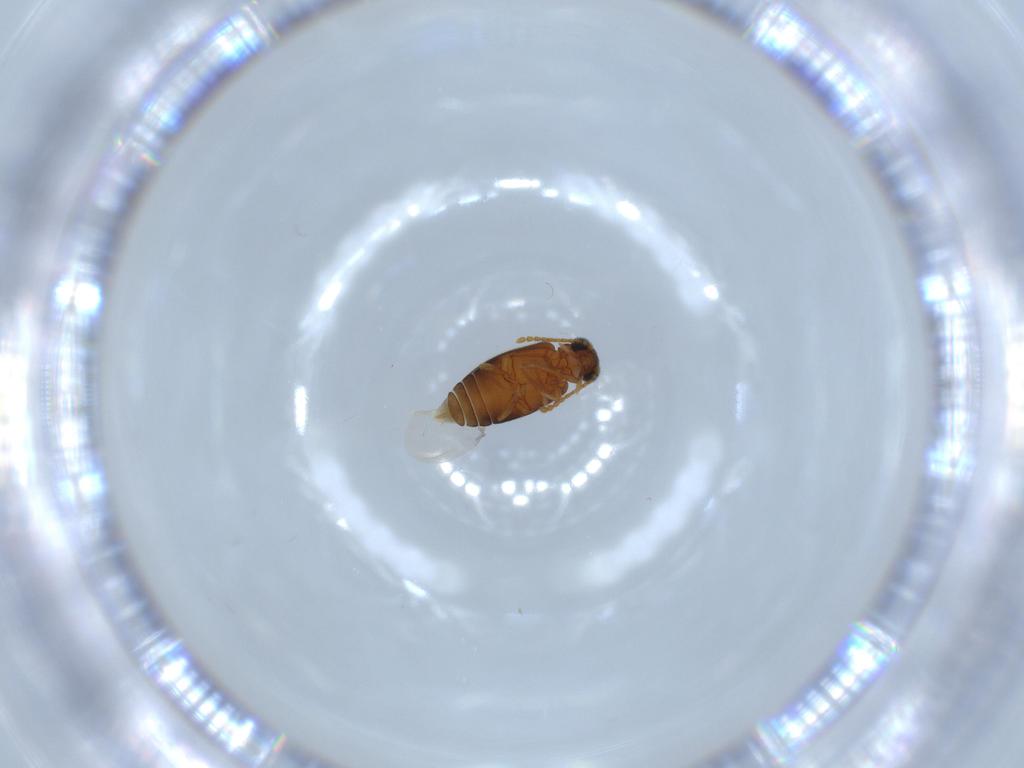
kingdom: Animalia
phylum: Arthropoda
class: Insecta
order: Coleoptera
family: Aderidae
